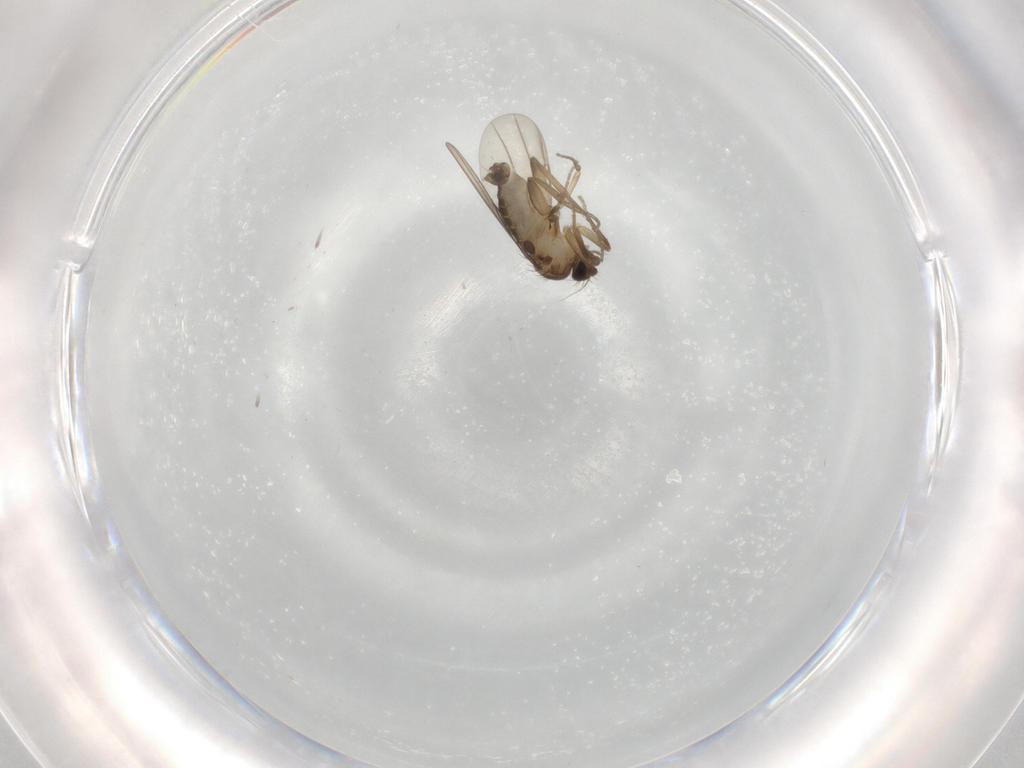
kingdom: Animalia
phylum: Arthropoda
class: Insecta
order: Diptera
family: Phoridae
